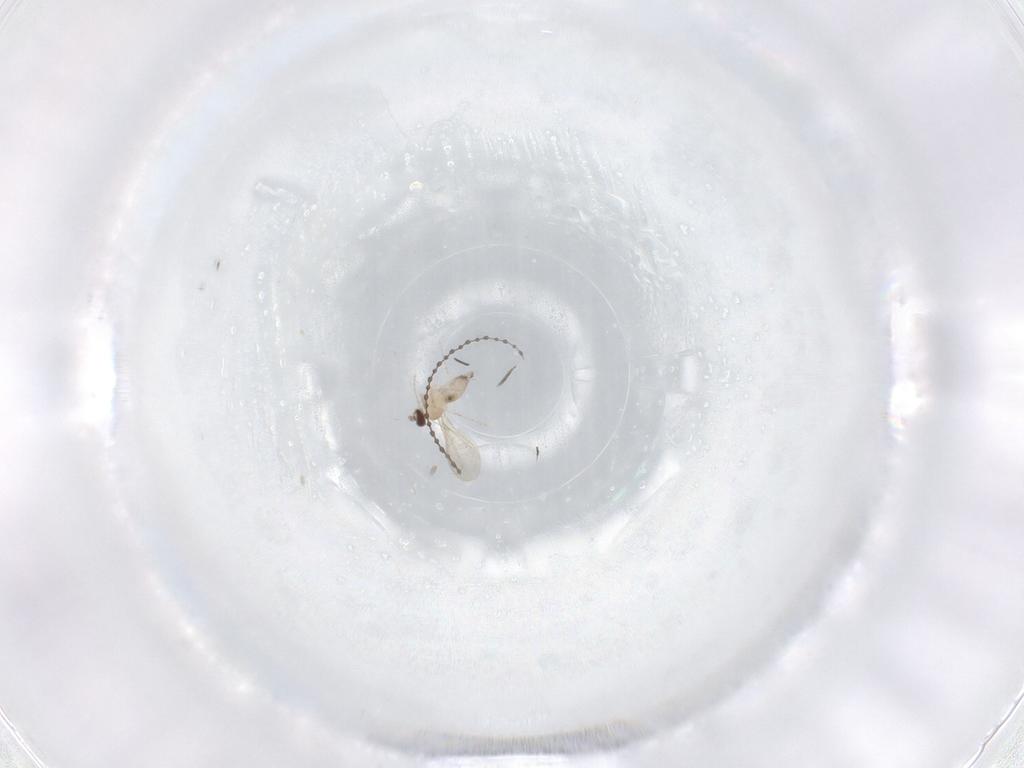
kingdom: Animalia
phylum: Arthropoda
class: Insecta
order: Diptera
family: Cecidomyiidae
